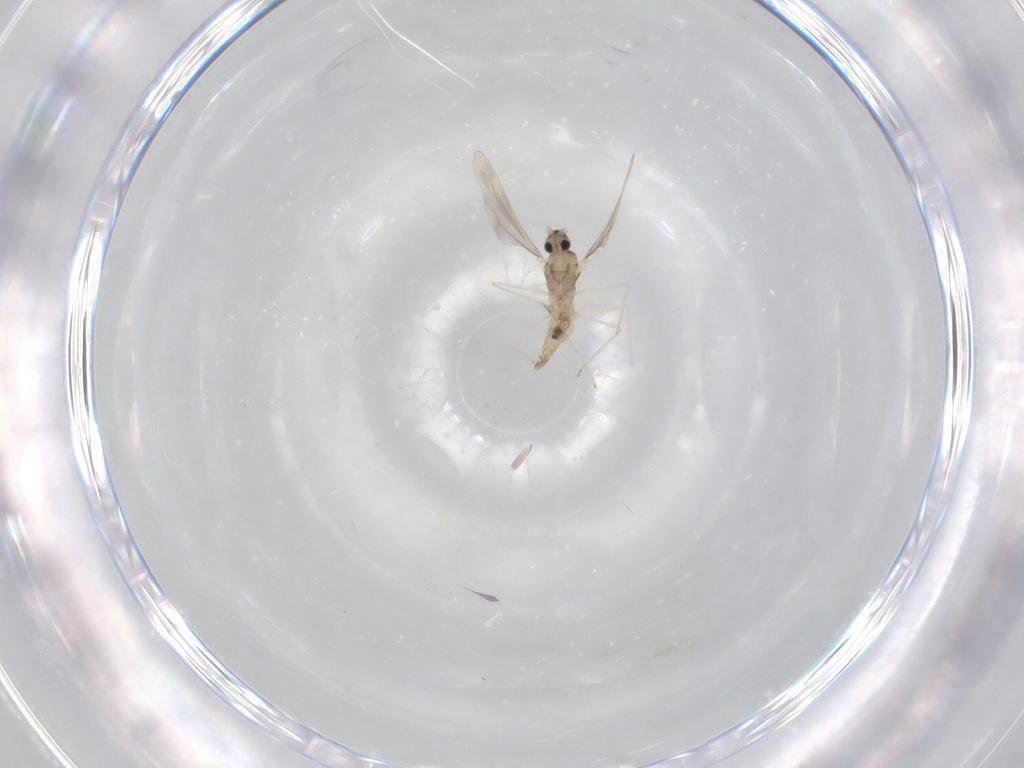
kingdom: Animalia
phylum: Arthropoda
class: Insecta
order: Diptera
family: Cecidomyiidae
